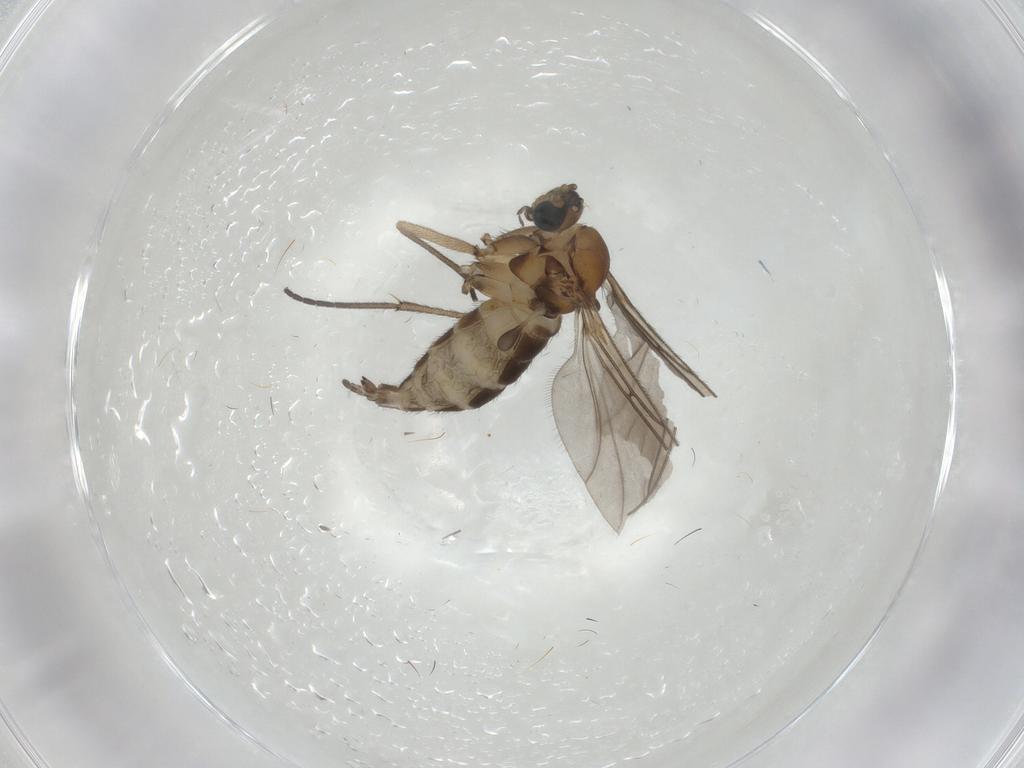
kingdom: Animalia
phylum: Arthropoda
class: Insecta
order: Diptera
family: Sciaridae
